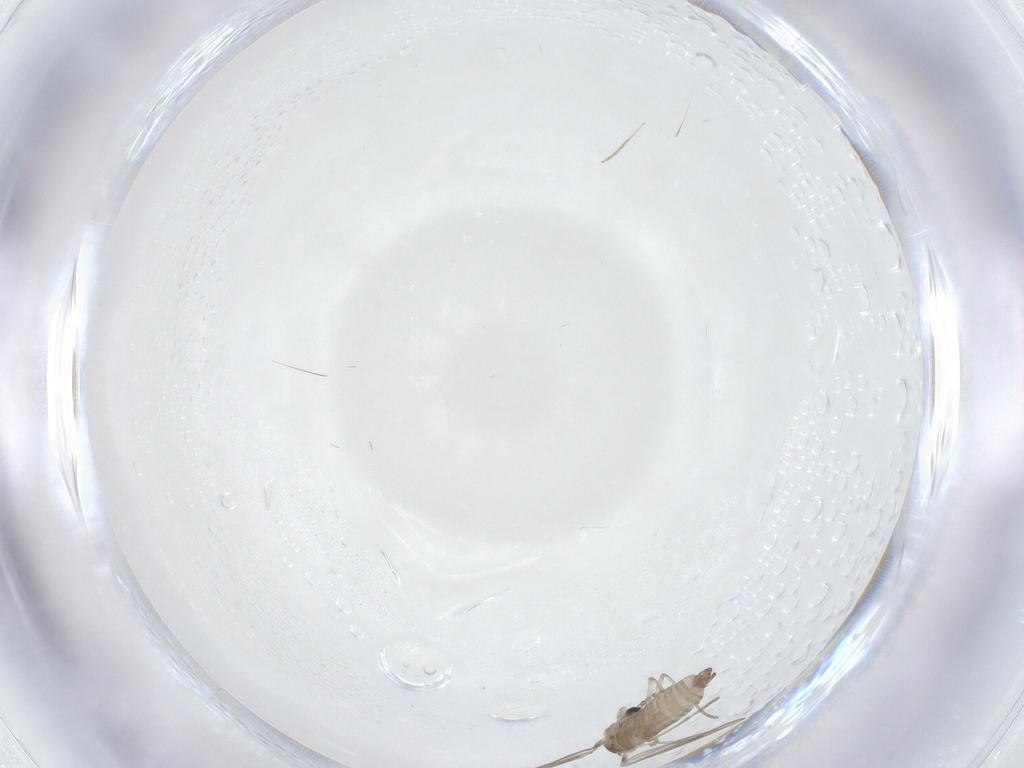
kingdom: Animalia
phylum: Arthropoda
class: Insecta
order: Diptera
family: Psychodidae
